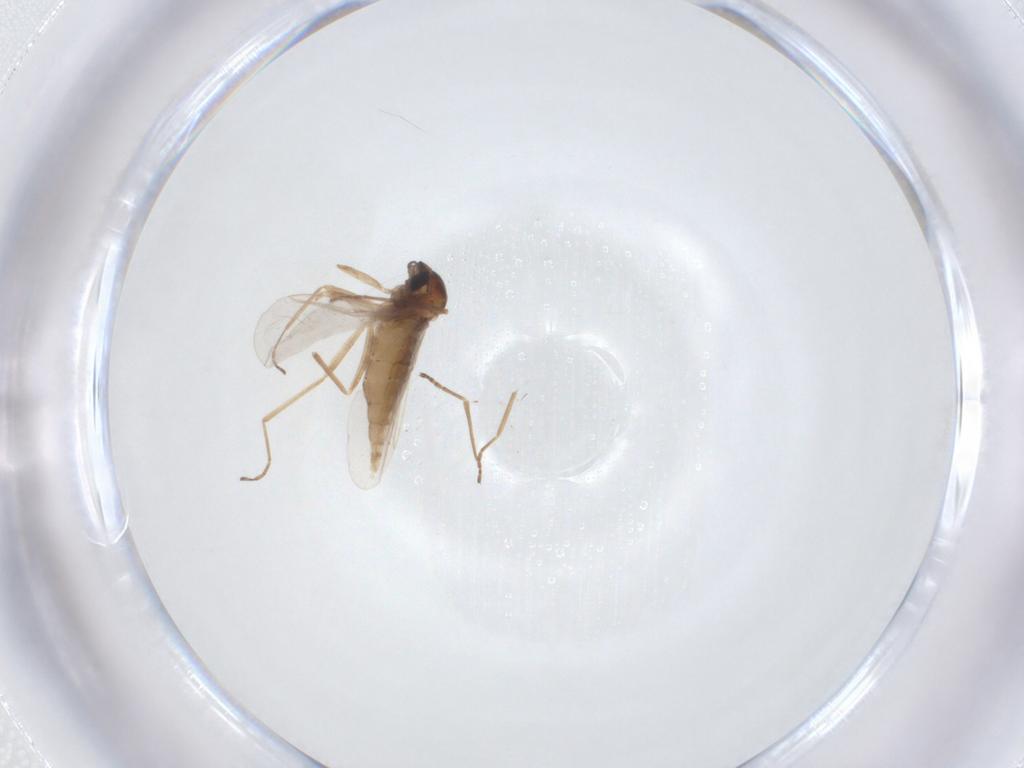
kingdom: Animalia
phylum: Arthropoda
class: Insecta
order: Diptera
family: Cecidomyiidae
